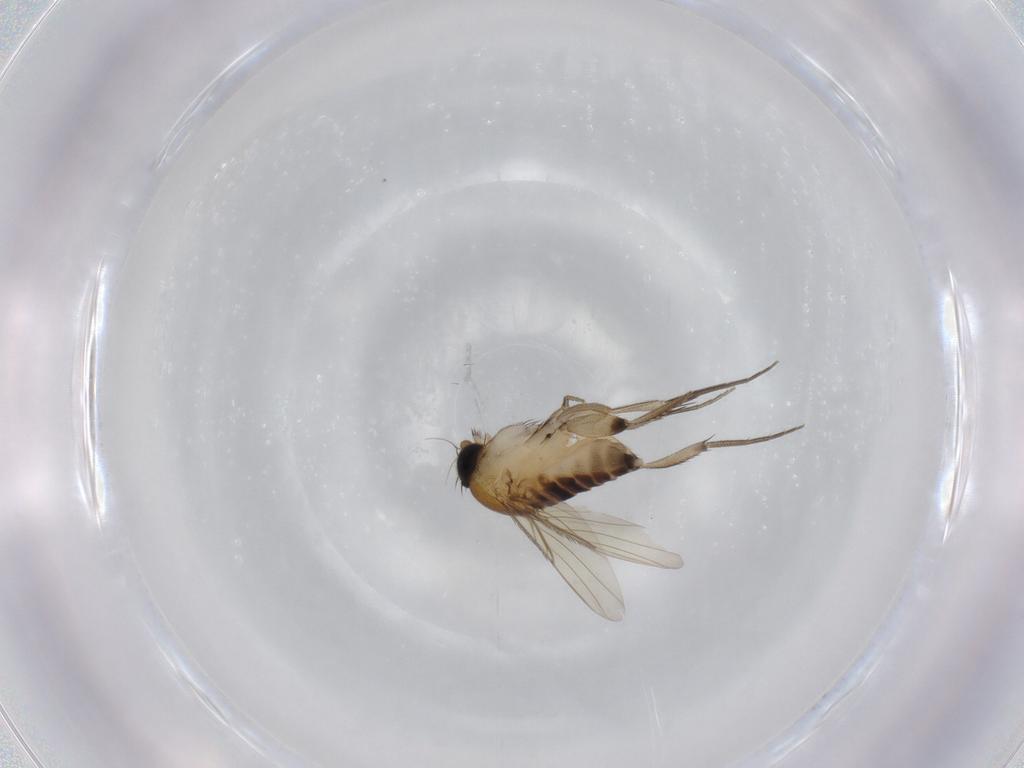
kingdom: Animalia
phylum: Arthropoda
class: Insecta
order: Diptera
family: Phoridae
